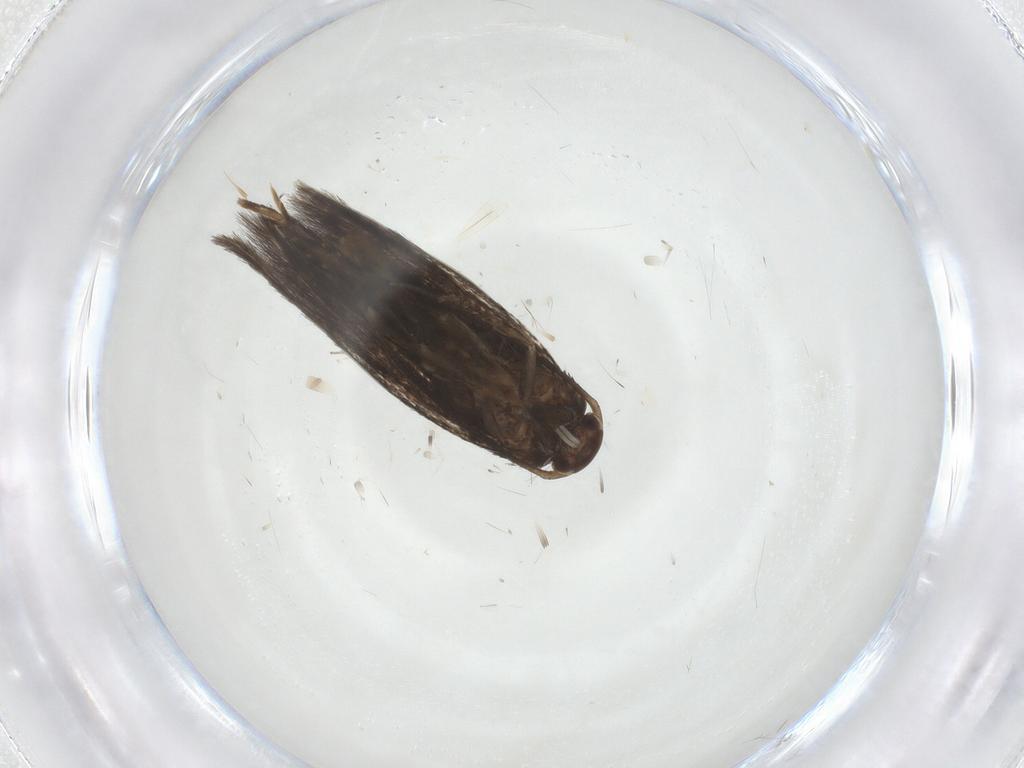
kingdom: Animalia
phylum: Arthropoda
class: Insecta
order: Lepidoptera
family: Elachistidae
